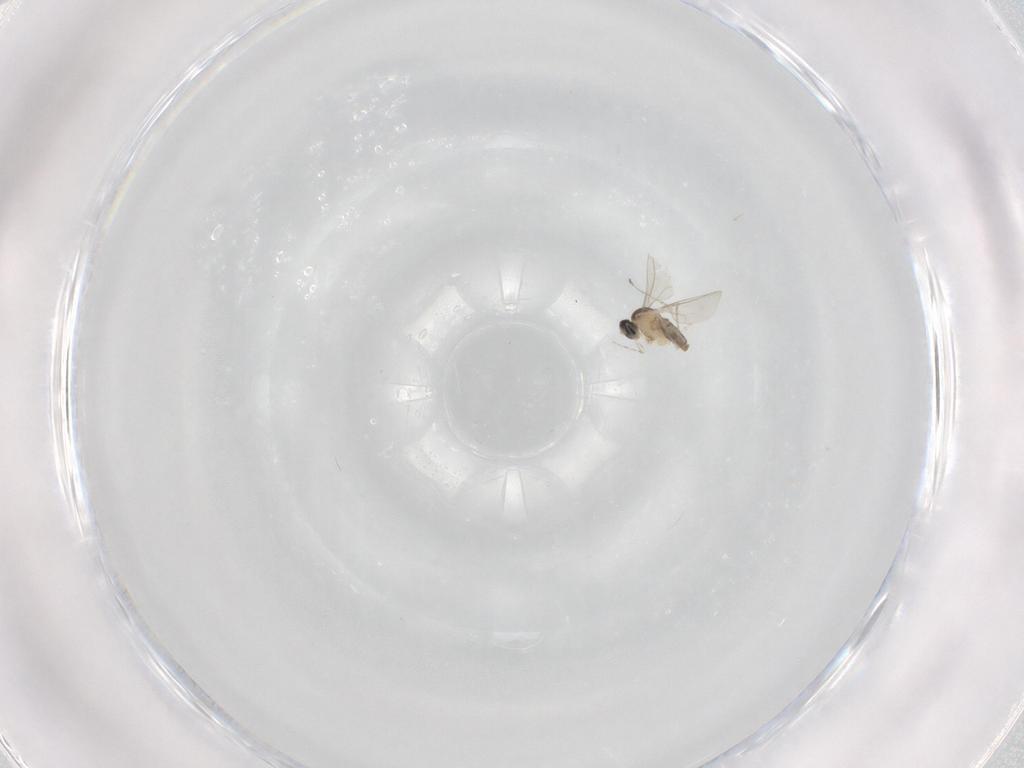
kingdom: Animalia
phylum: Arthropoda
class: Insecta
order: Diptera
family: Cecidomyiidae
